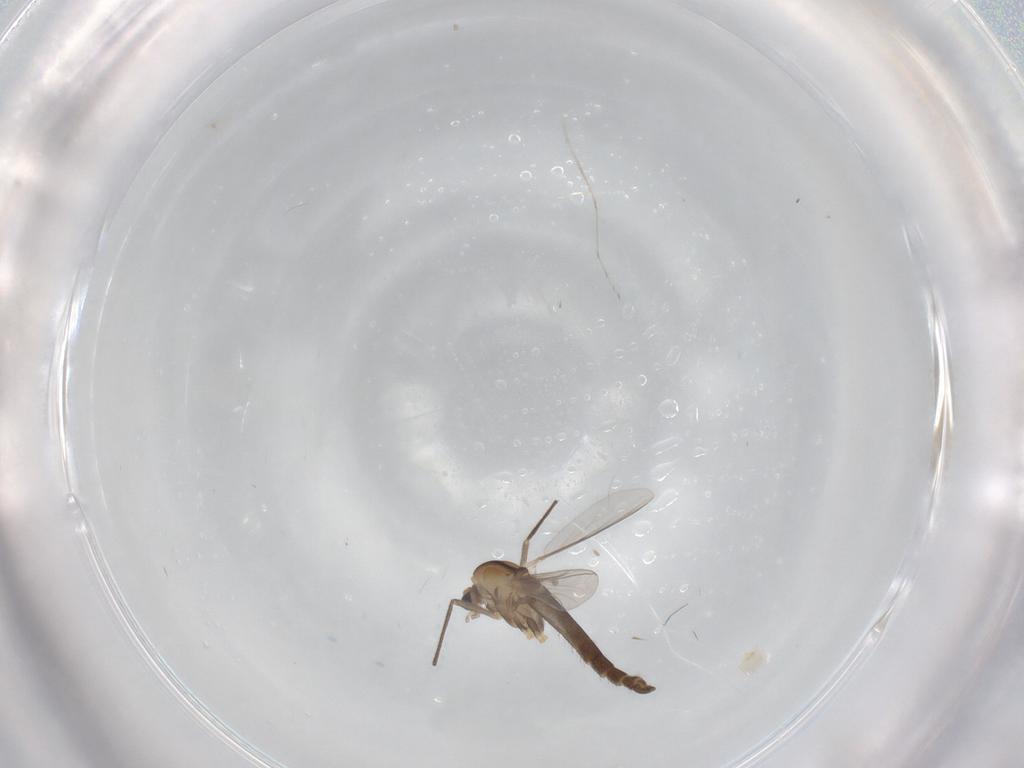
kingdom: Animalia
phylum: Arthropoda
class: Insecta
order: Diptera
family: Chironomidae
